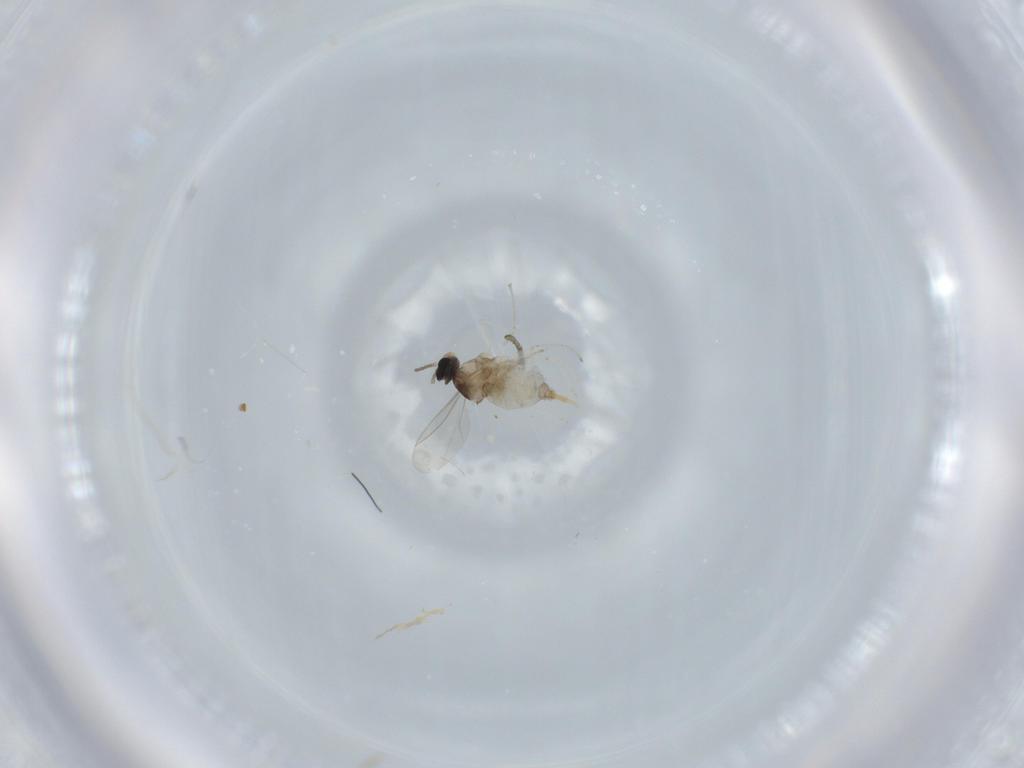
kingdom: Animalia
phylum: Arthropoda
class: Insecta
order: Diptera
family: Cecidomyiidae
